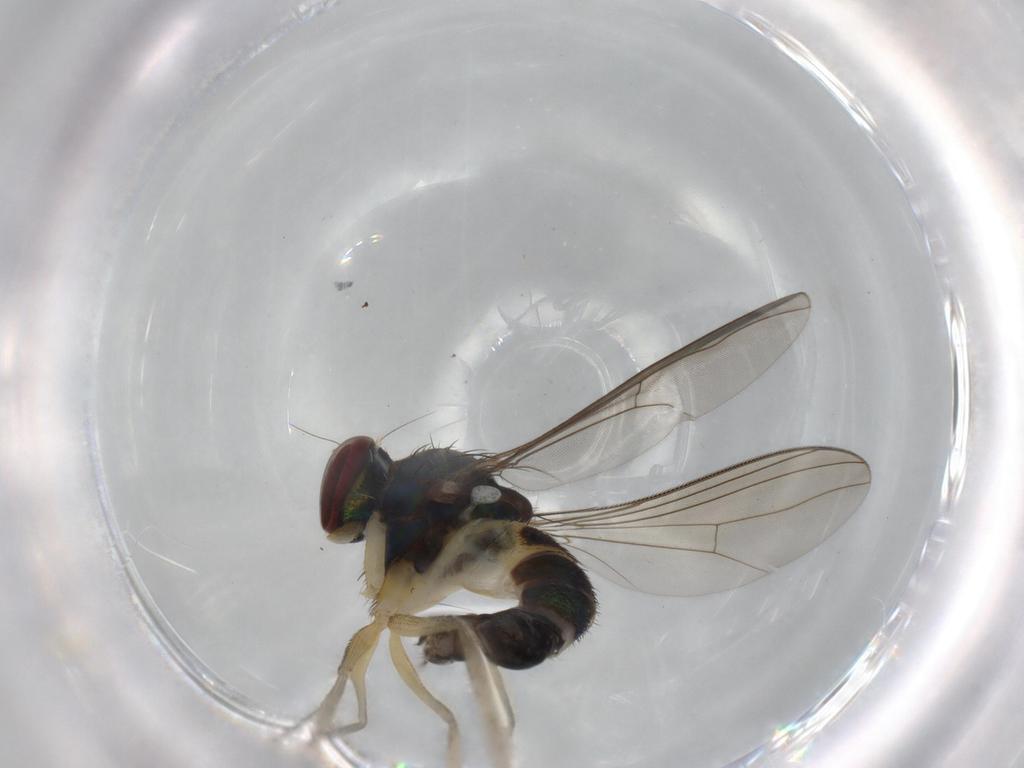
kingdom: Animalia
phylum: Arthropoda
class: Insecta
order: Diptera
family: Dolichopodidae
